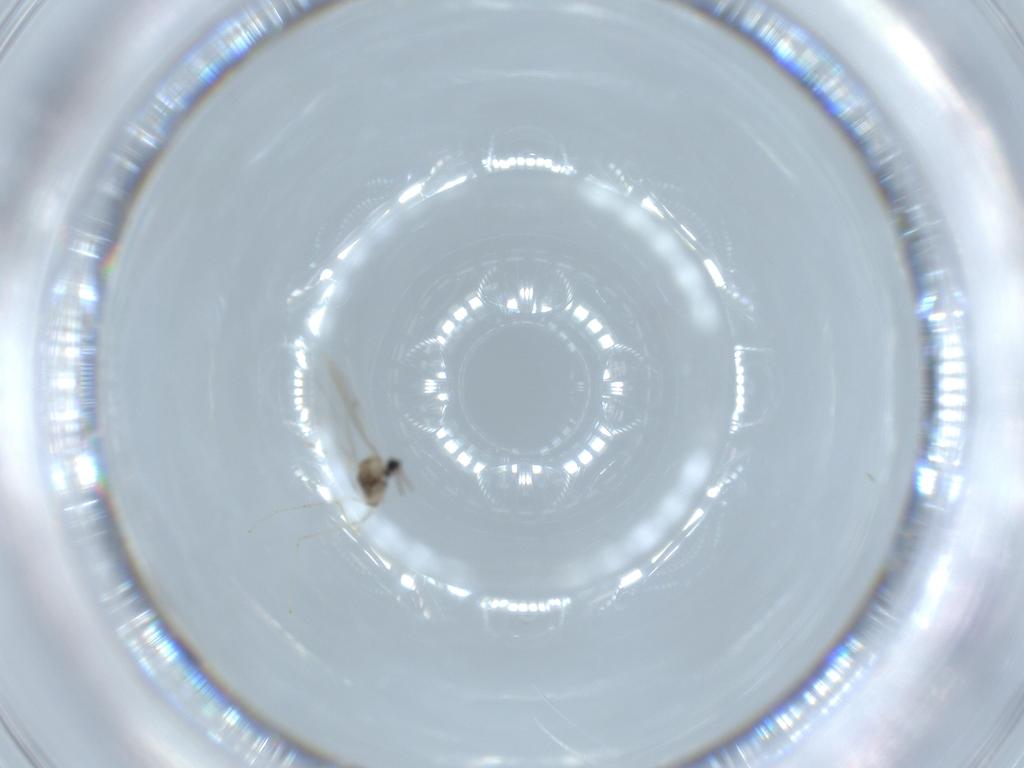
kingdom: Animalia
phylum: Arthropoda
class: Insecta
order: Diptera
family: Cecidomyiidae
